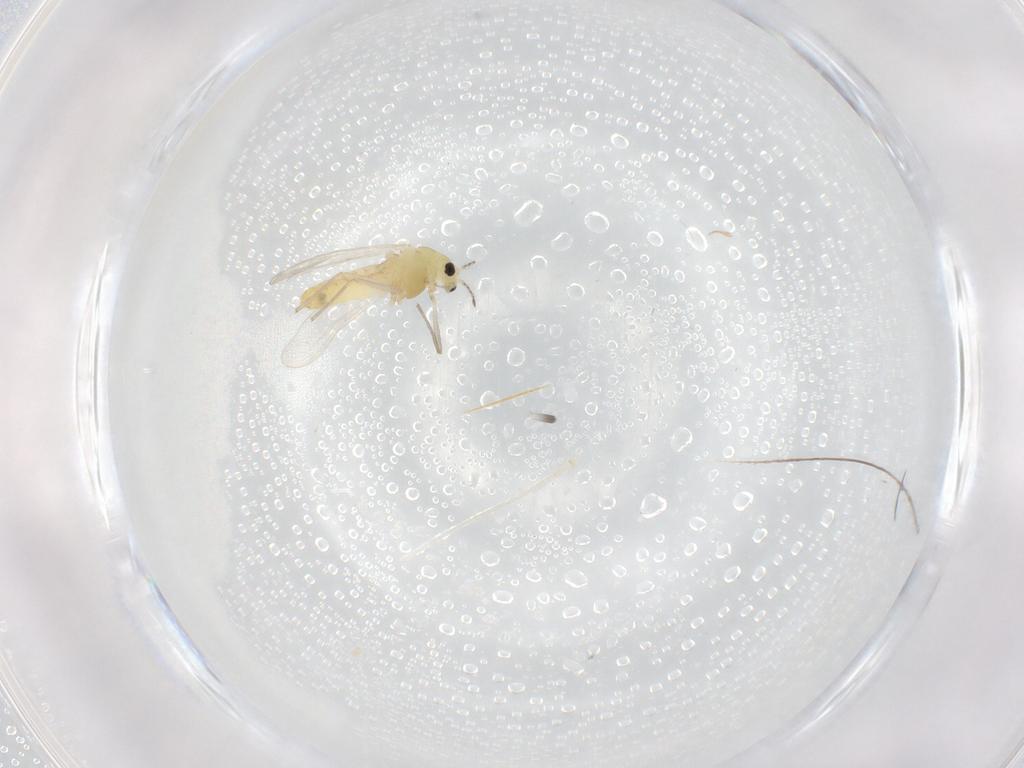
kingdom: Animalia
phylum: Arthropoda
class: Insecta
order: Diptera
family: Chironomidae
